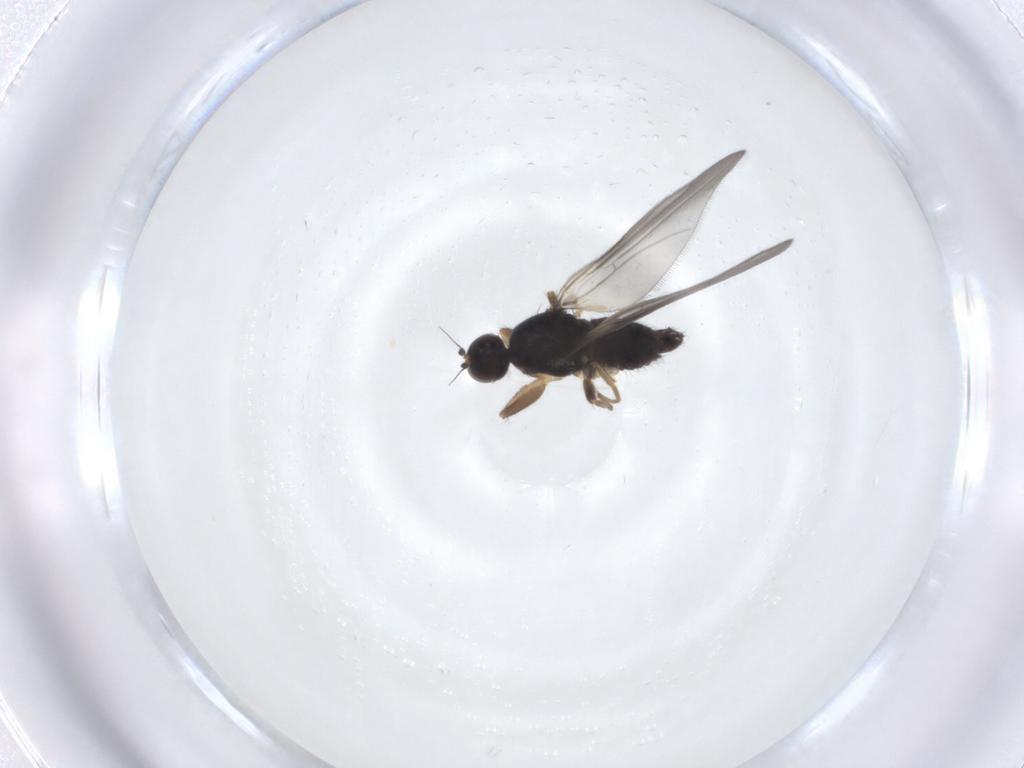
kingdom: Animalia
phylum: Arthropoda
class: Insecta
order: Diptera
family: Hybotidae
